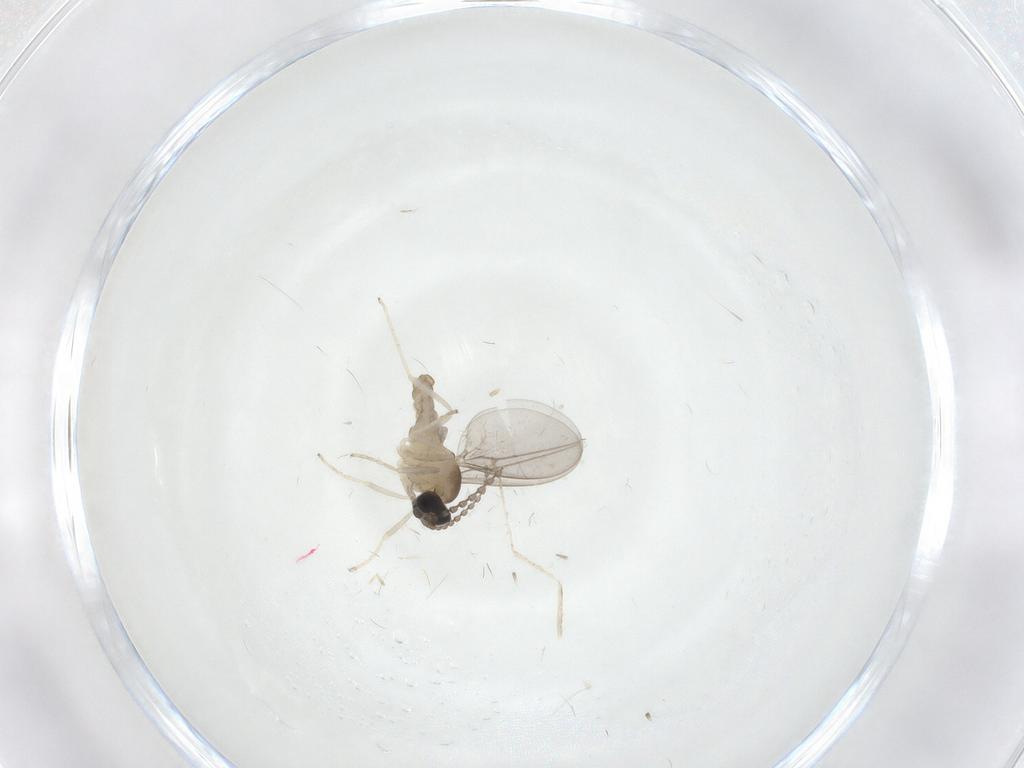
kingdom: Animalia
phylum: Arthropoda
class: Insecta
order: Diptera
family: Cecidomyiidae
